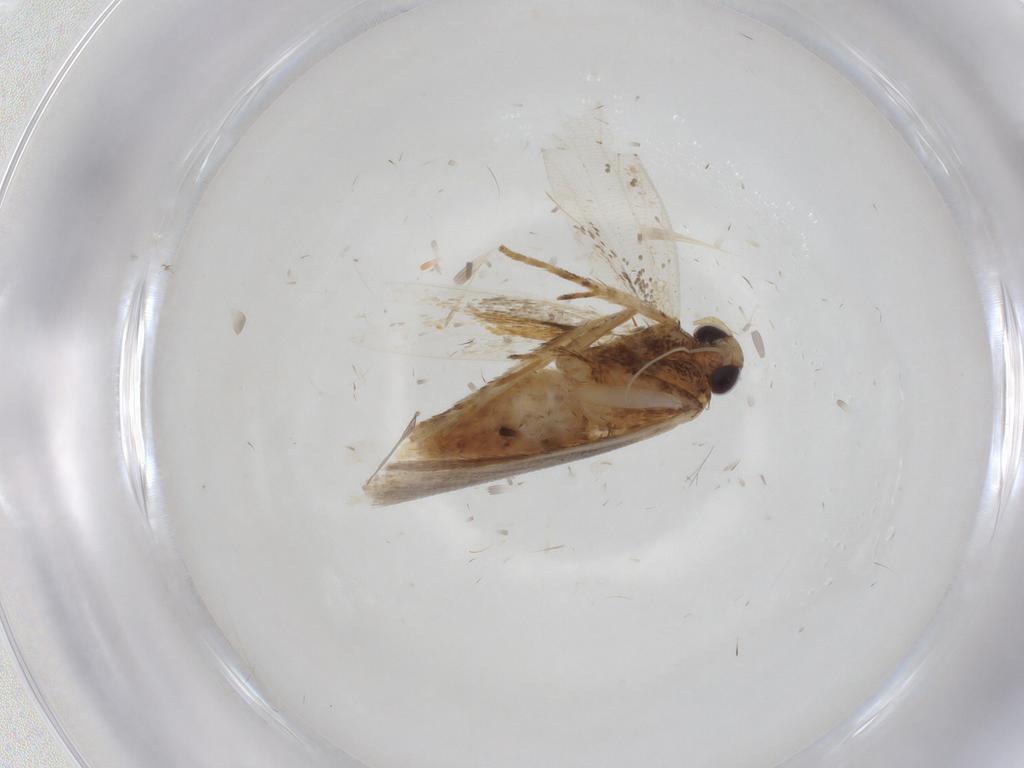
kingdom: Animalia
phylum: Arthropoda
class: Insecta
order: Lepidoptera
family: Gelechiidae
